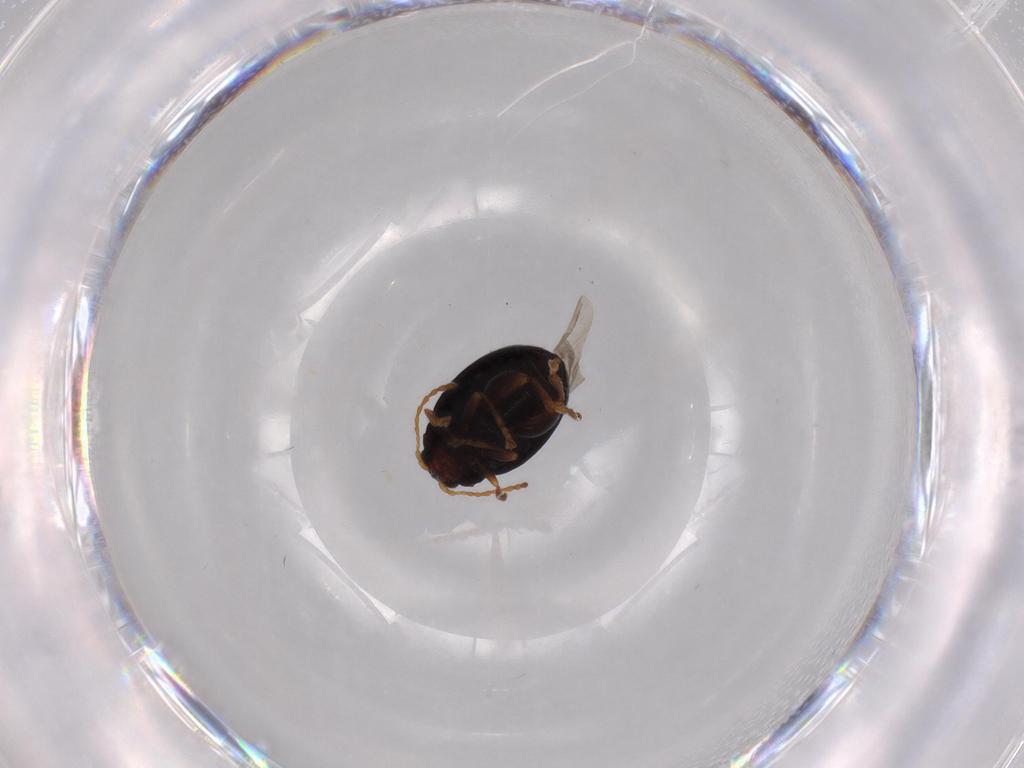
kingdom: Animalia
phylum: Arthropoda
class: Insecta
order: Coleoptera
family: Chrysomelidae
